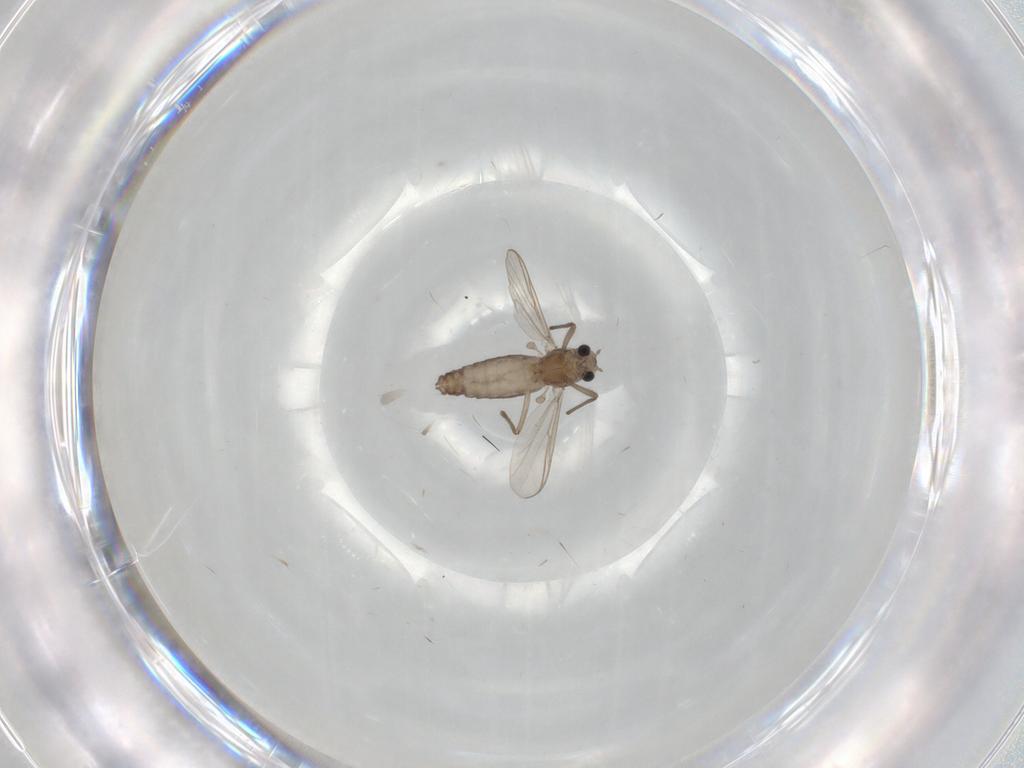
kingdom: Animalia
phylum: Arthropoda
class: Insecta
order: Diptera
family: Chironomidae
